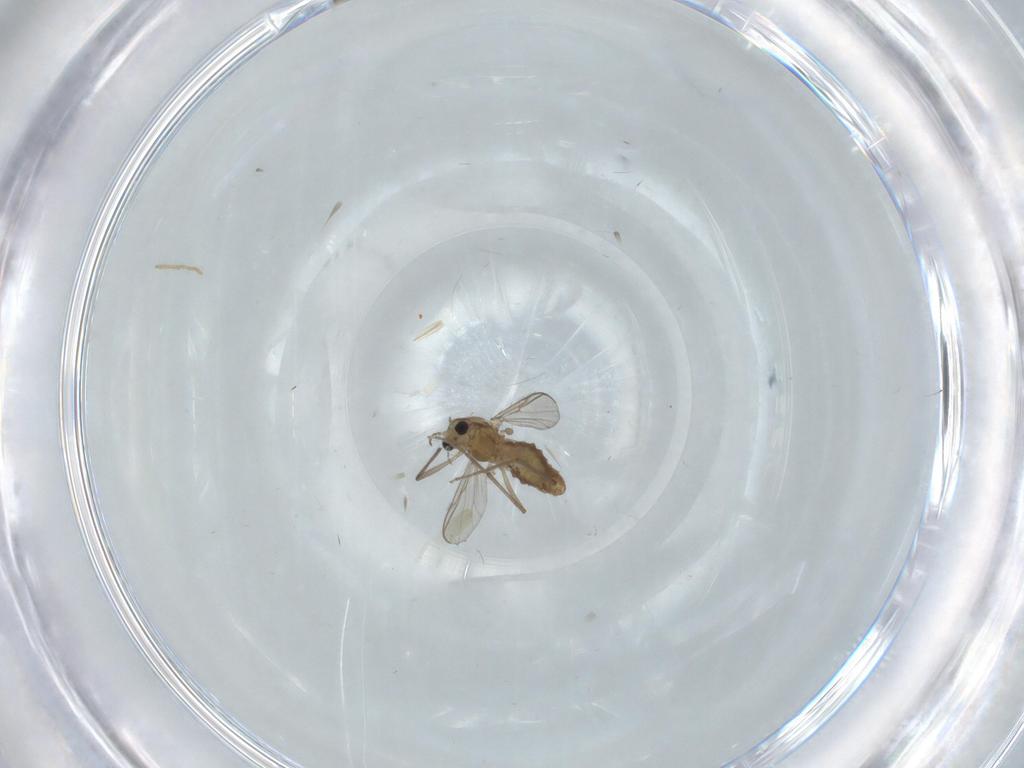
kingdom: Animalia
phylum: Arthropoda
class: Insecta
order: Diptera
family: Chironomidae
